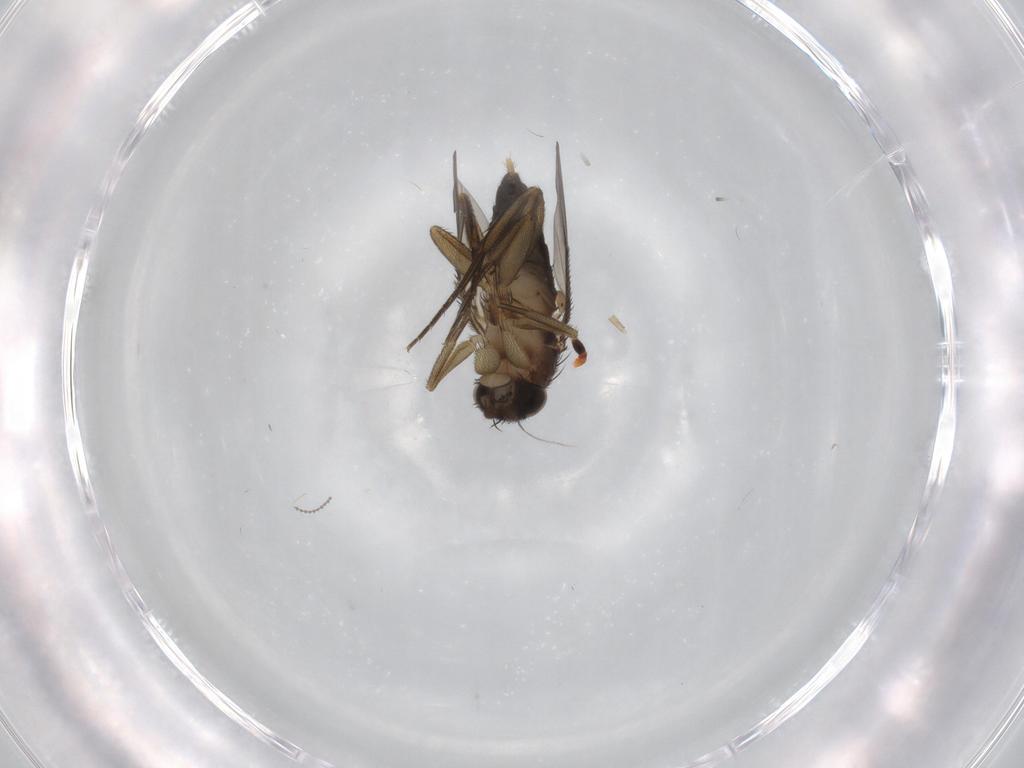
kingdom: Animalia
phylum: Arthropoda
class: Insecta
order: Diptera
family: Phoridae
